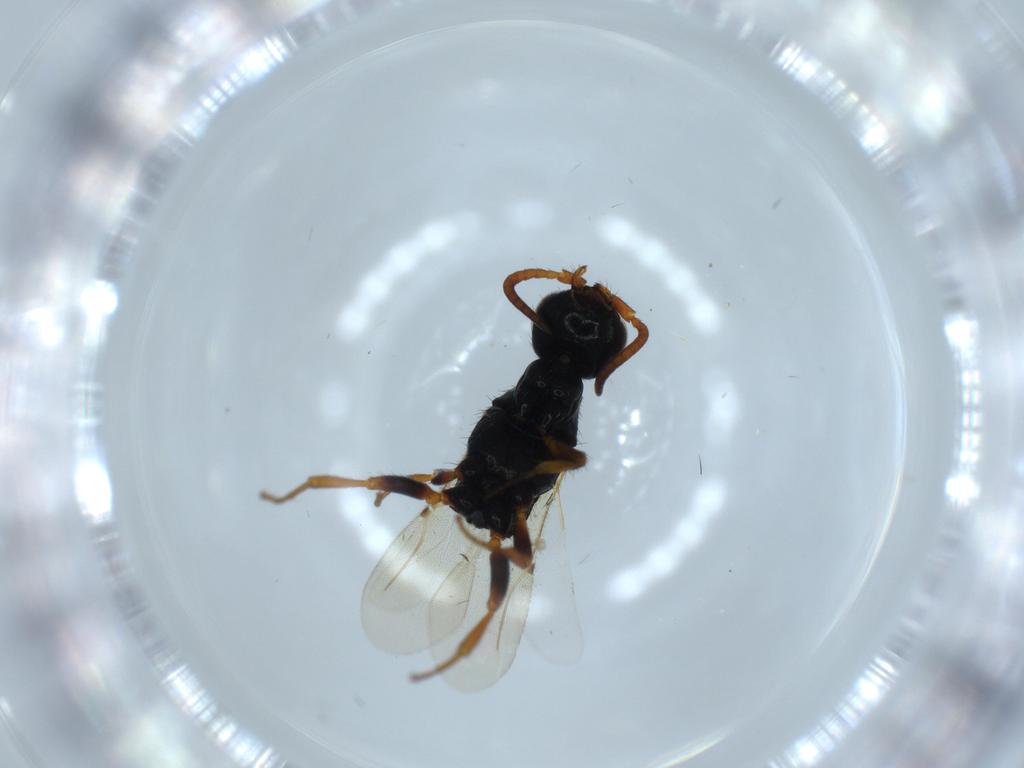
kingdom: Animalia
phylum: Arthropoda
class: Insecta
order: Hymenoptera
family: Bethylidae
